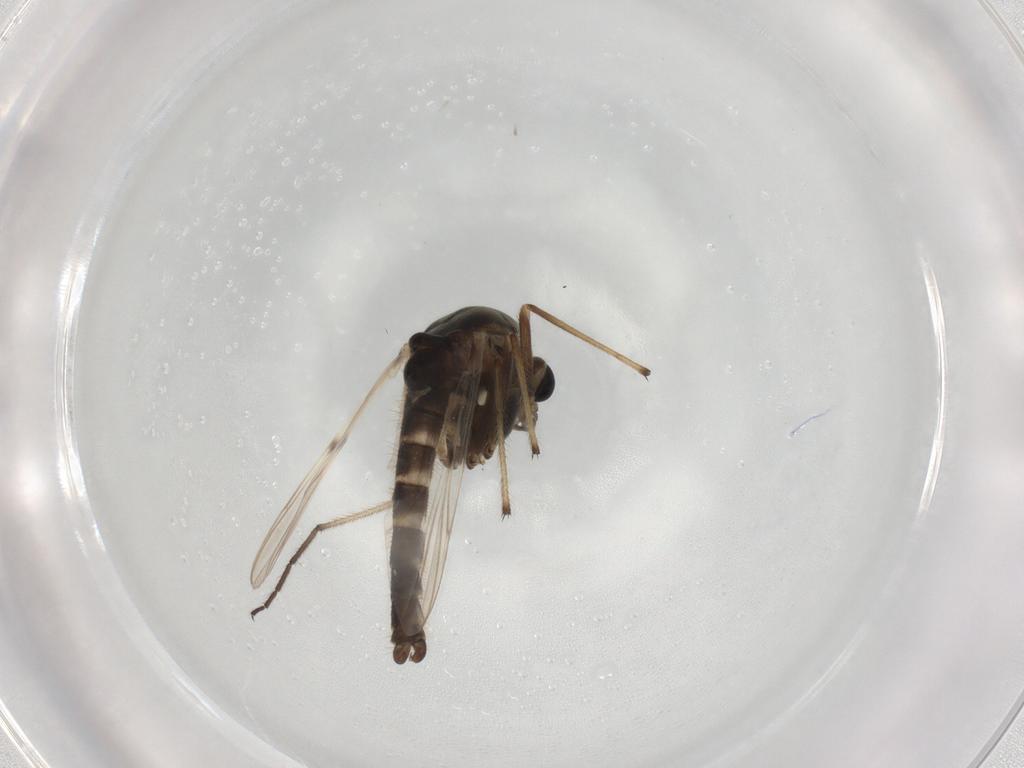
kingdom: Animalia
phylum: Arthropoda
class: Insecta
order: Diptera
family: Chironomidae
